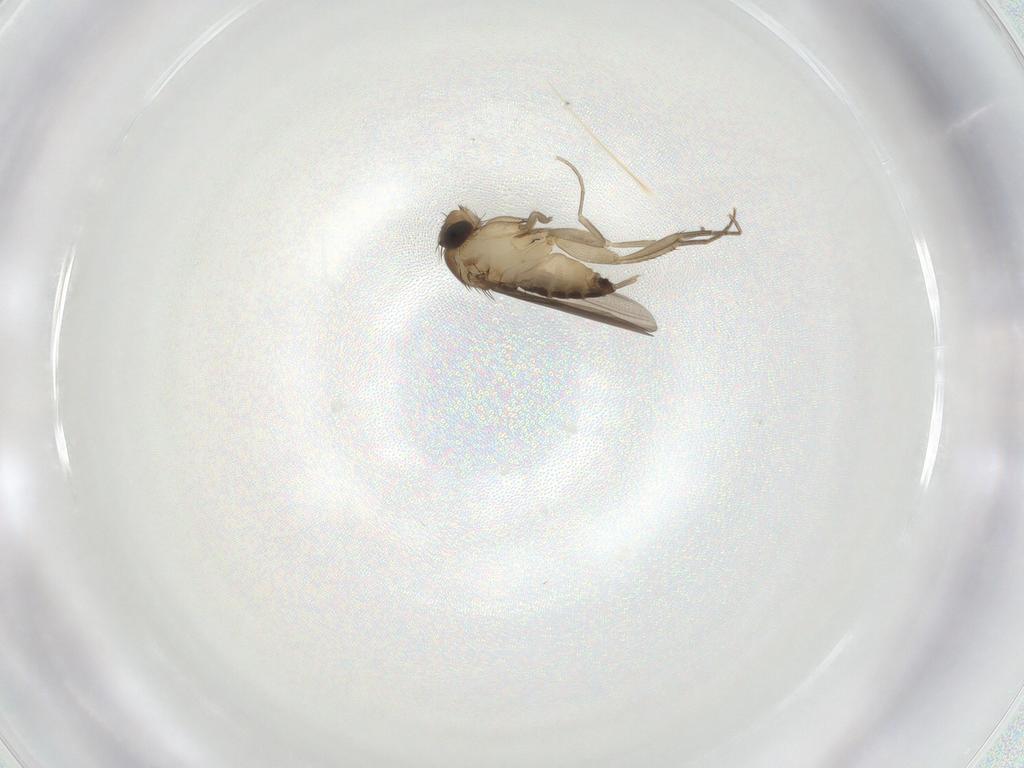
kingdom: Animalia
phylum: Arthropoda
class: Insecta
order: Diptera
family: Phoridae
